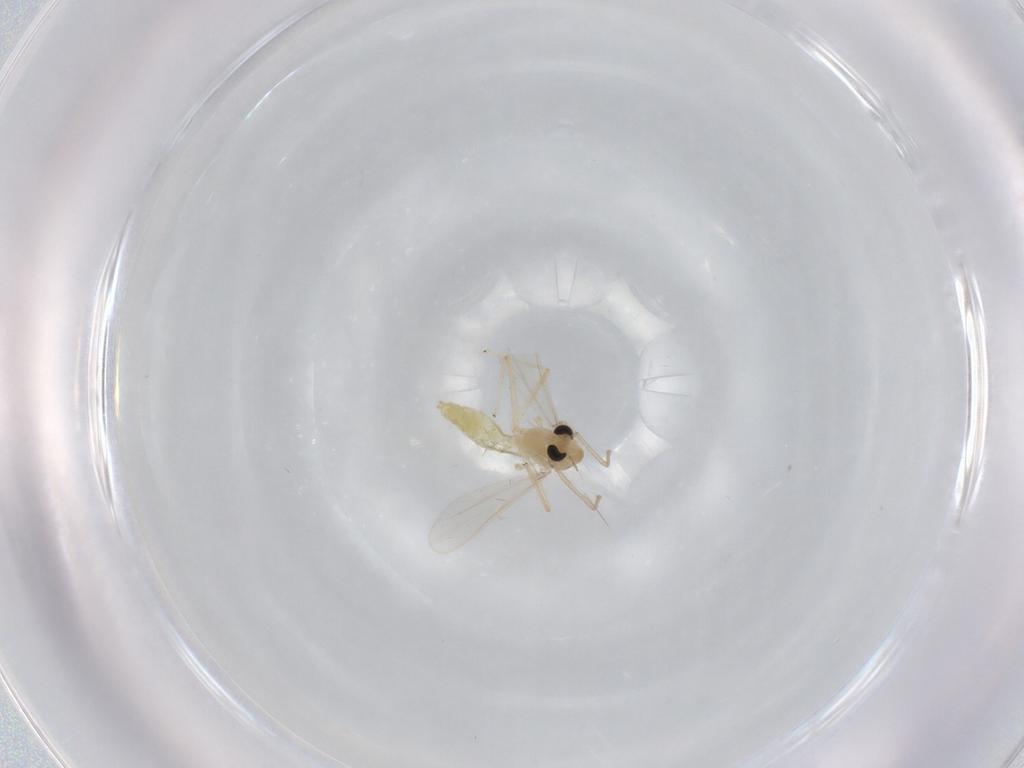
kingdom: Animalia
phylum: Arthropoda
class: Insecta
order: Diptera
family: Chironomidae
